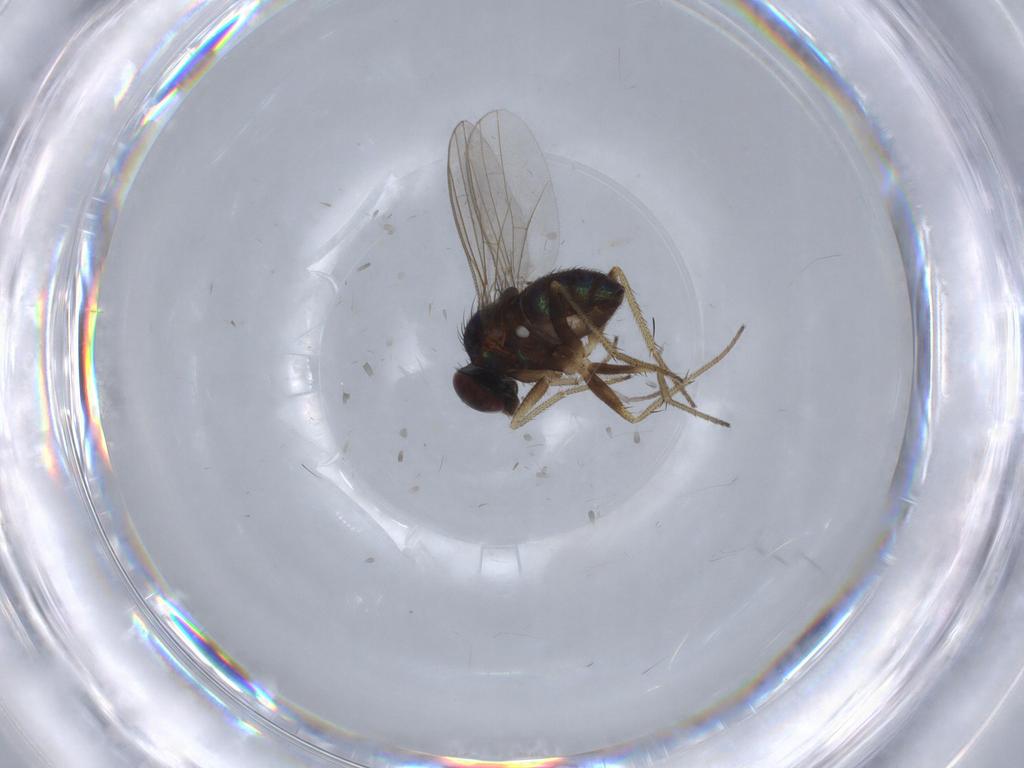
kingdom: Animalia
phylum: Arthropoda
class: Insecta
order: Diptera
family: Dolichopodidae
